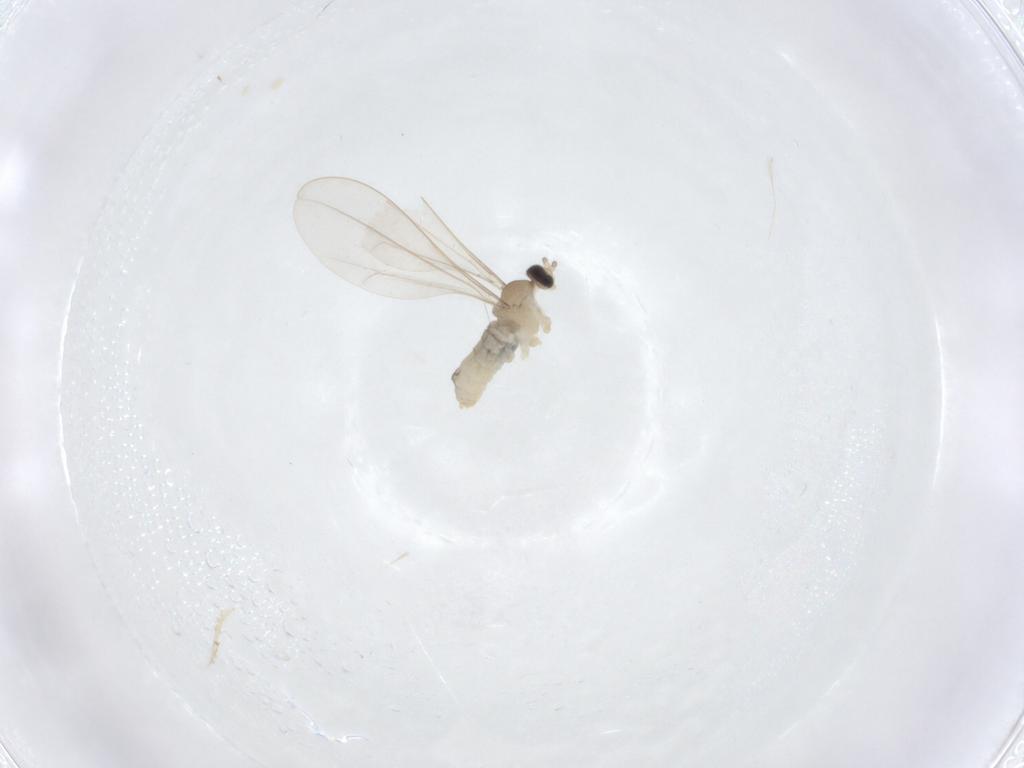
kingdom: Animalia
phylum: Arthropoda
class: Insecta
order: Diptera
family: Cecidomyiidae
